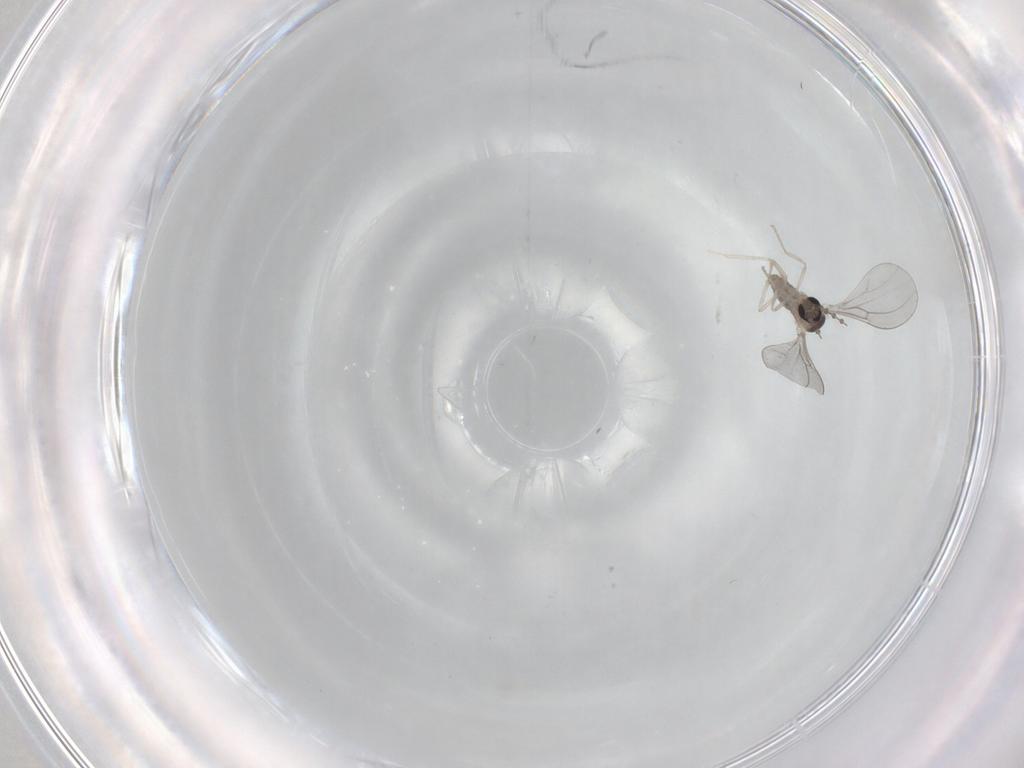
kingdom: Animalia
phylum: Arthropoda
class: Insecta
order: Diptera
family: Cecidomyiidae
